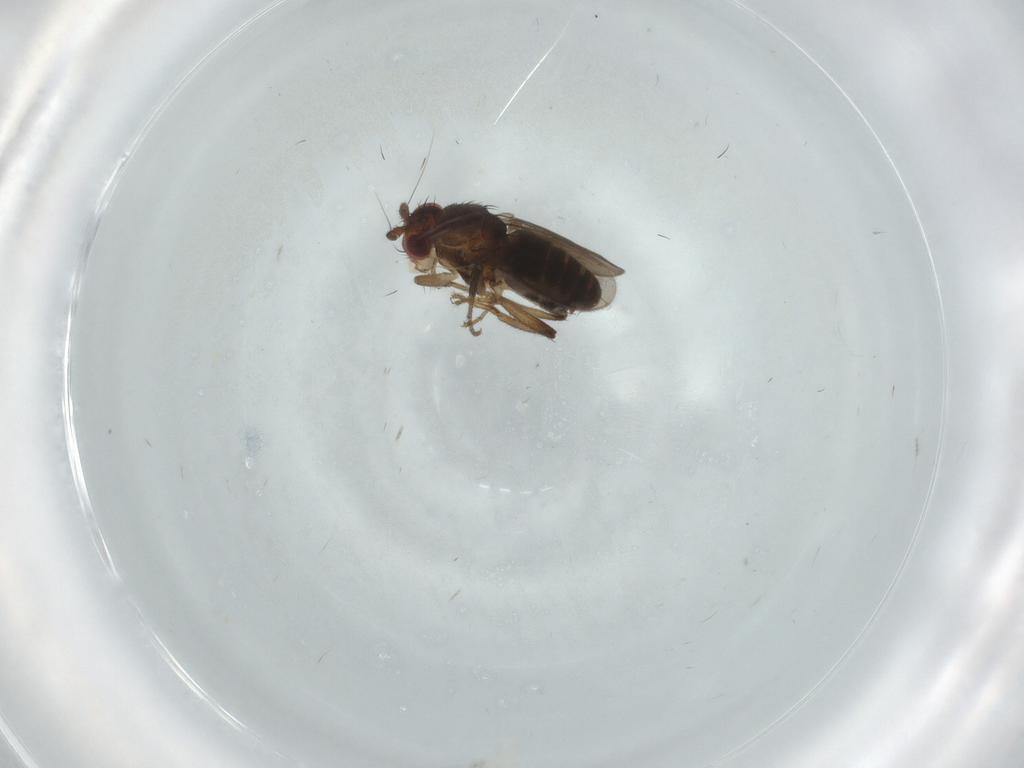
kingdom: Animalia
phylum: Arthropoda
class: Insecta
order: Diptera
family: Sphaeroceridae
